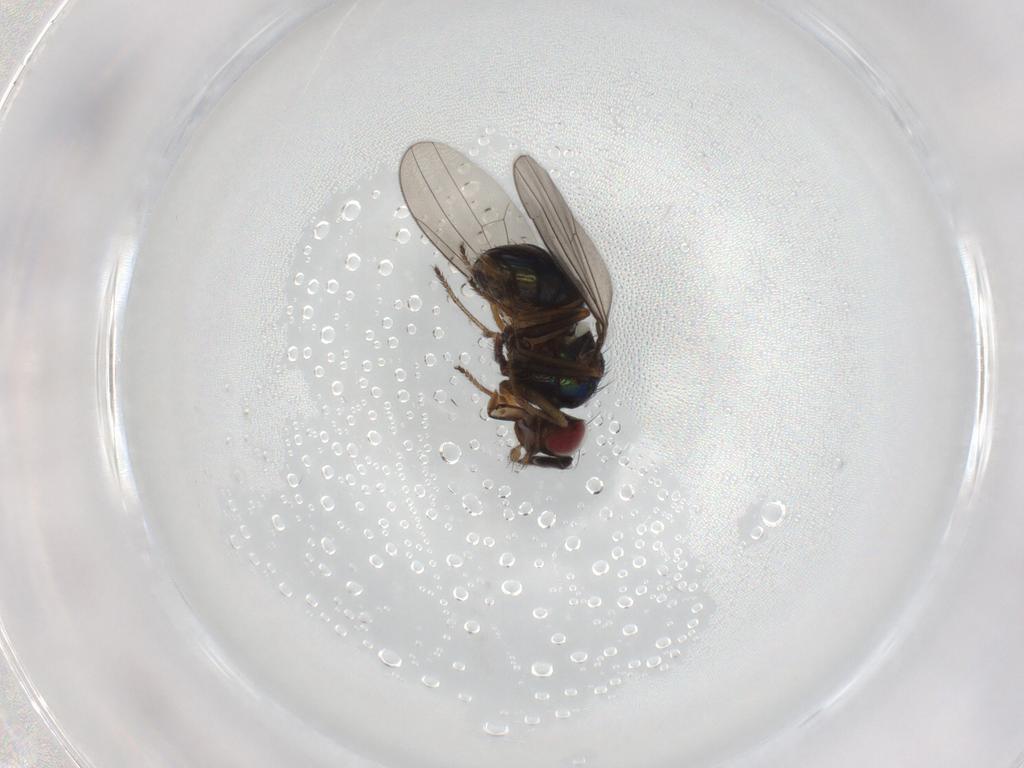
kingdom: Animalia
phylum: Arthropoda
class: Insecta
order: Diptera
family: Ephydridae
